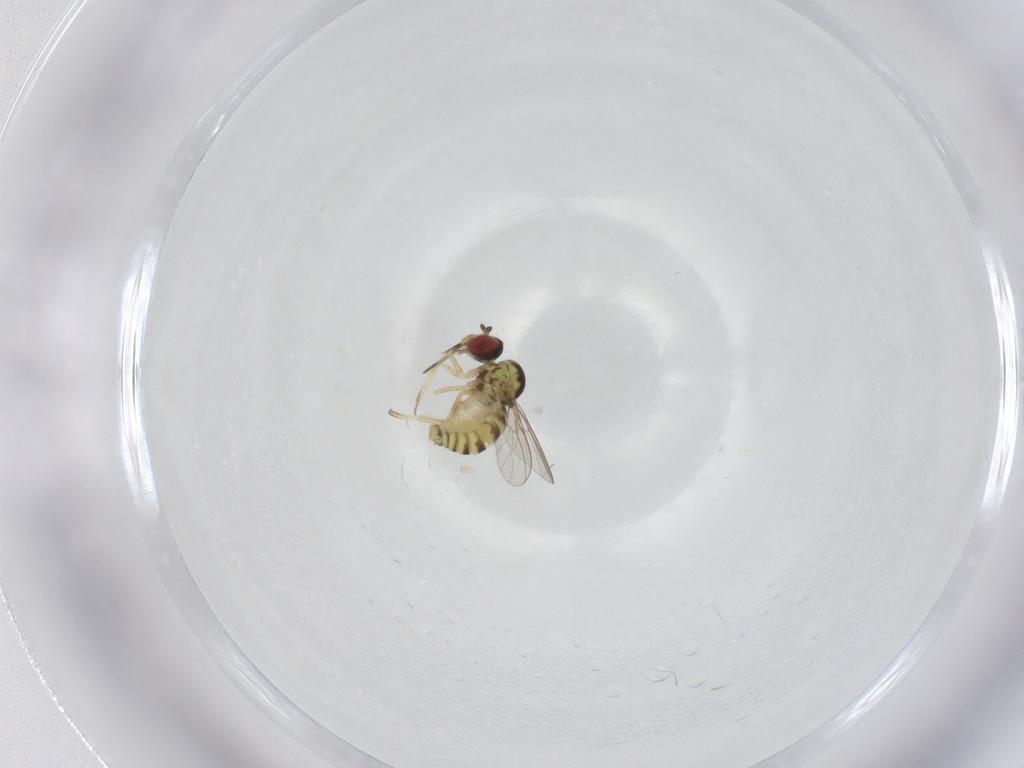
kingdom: Animalia
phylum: Arthropoda
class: Insecta
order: Diptera
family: Mythicomyiidae
